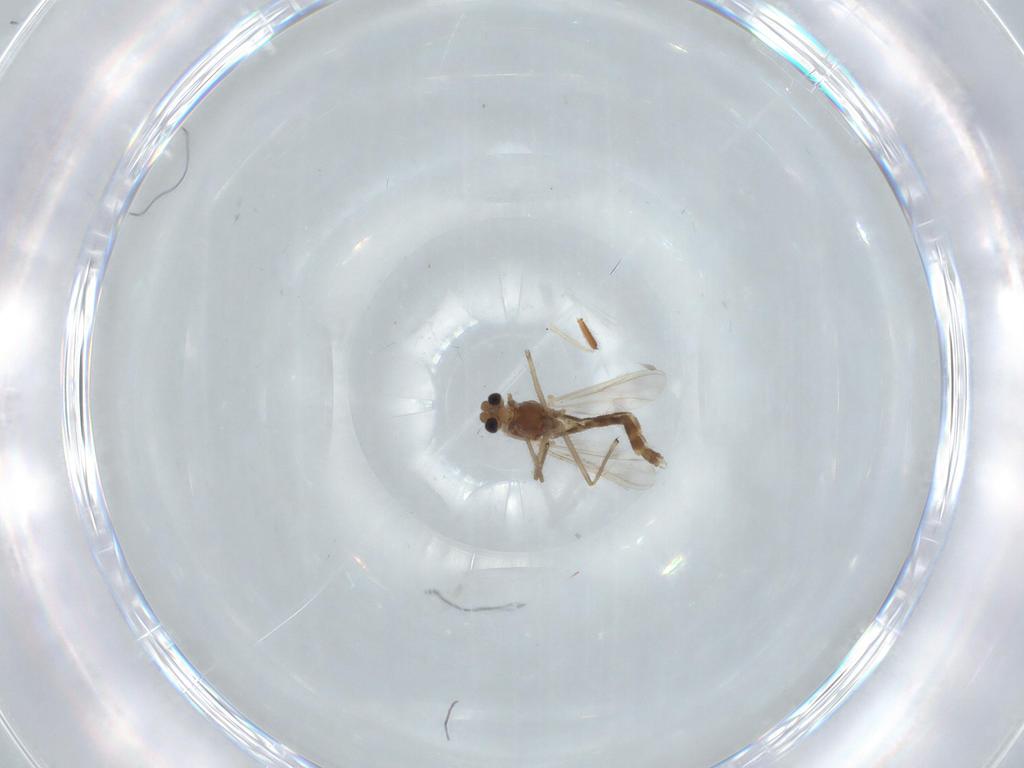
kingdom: Animalia
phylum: Arthropoda
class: Insecta
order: Diptera
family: Chironomidae
